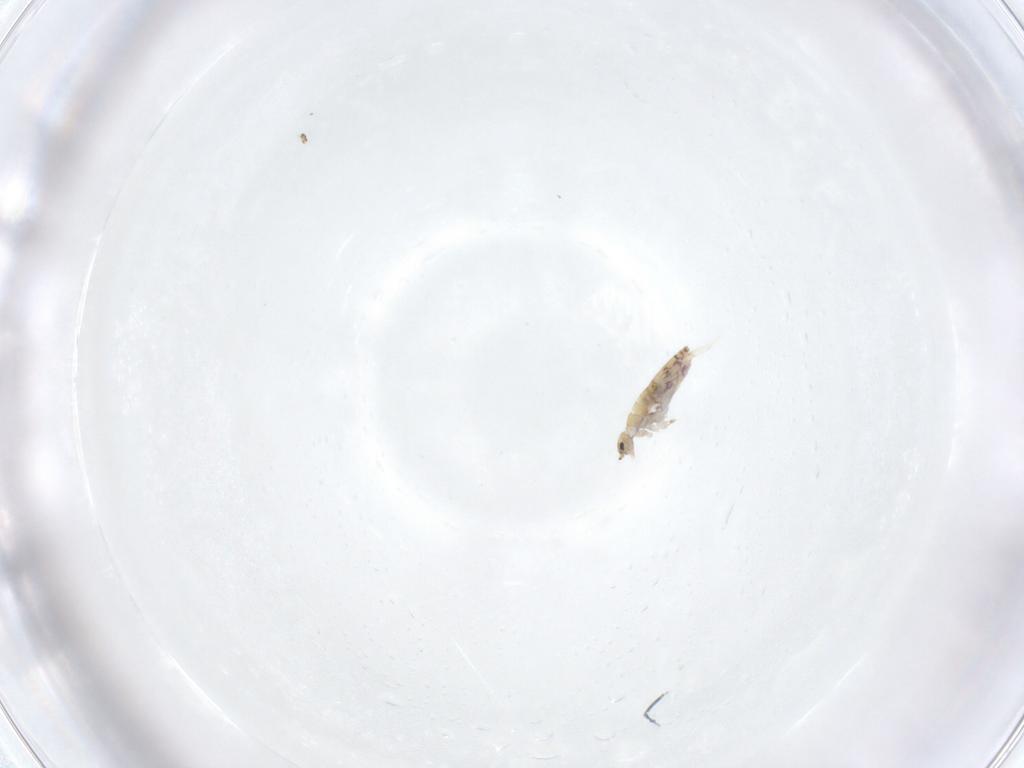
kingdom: Animalia
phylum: Arthropoda
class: Collembola
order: Entomobryomorpha
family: Entomobryidae
